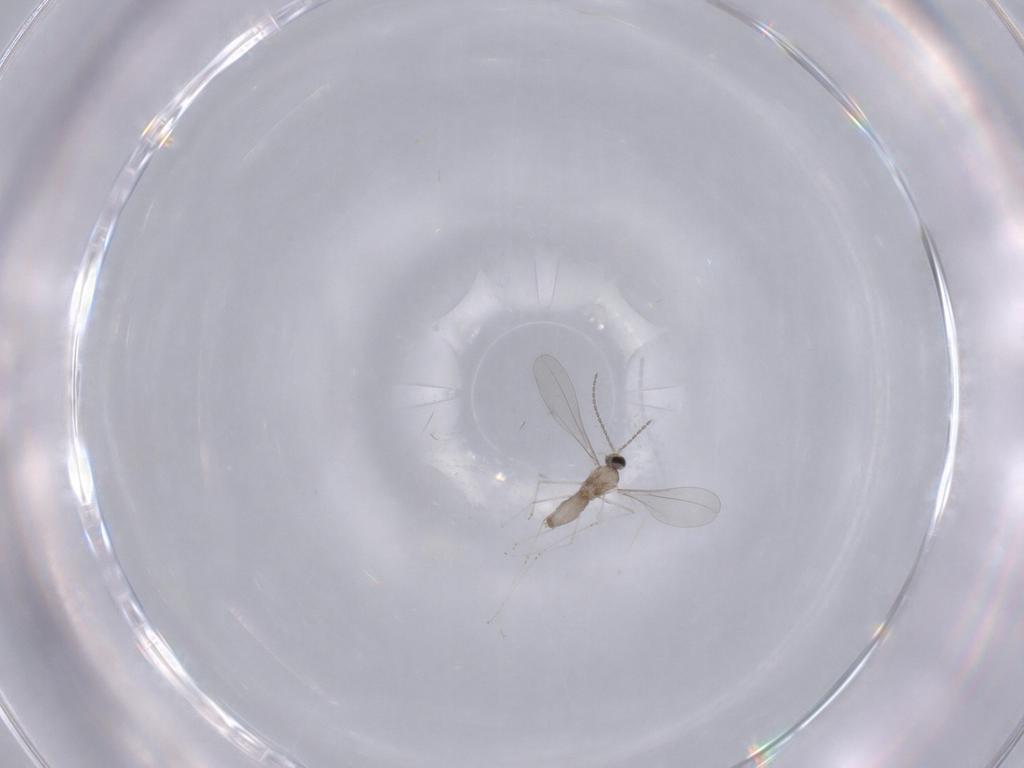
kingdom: Animalia
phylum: Arthropoda
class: Insecta
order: Diptera
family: Cecidomyiidae
